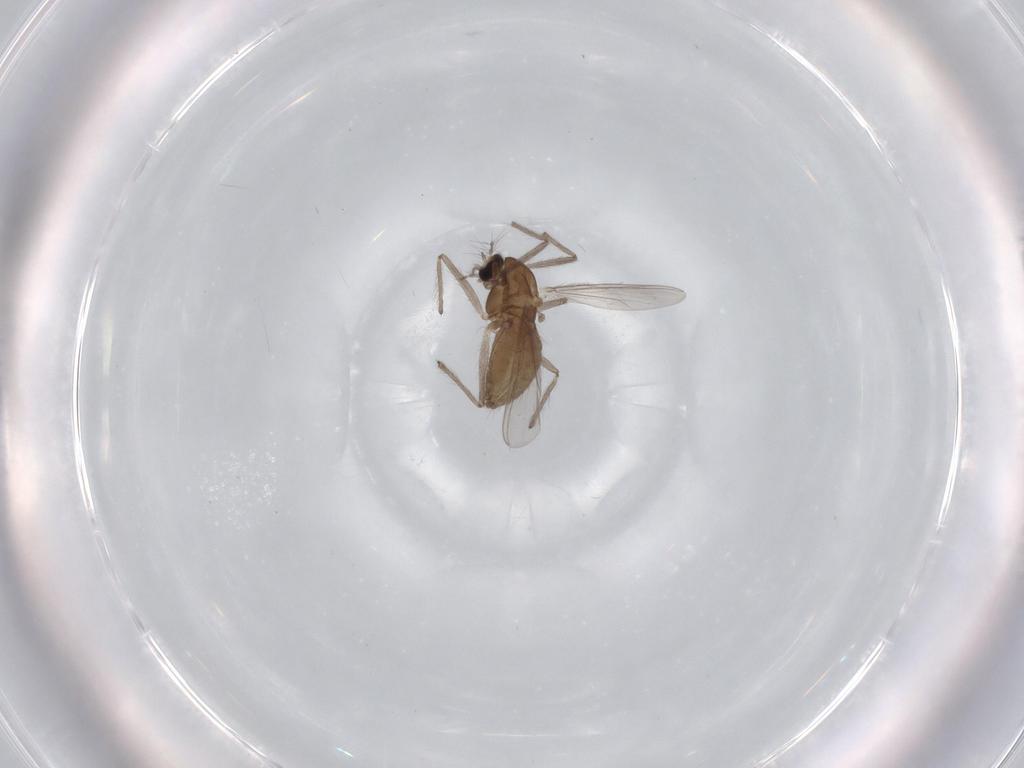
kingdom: Animalia
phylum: Arthropoda
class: Insecta
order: Diptera
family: Chironomidae
